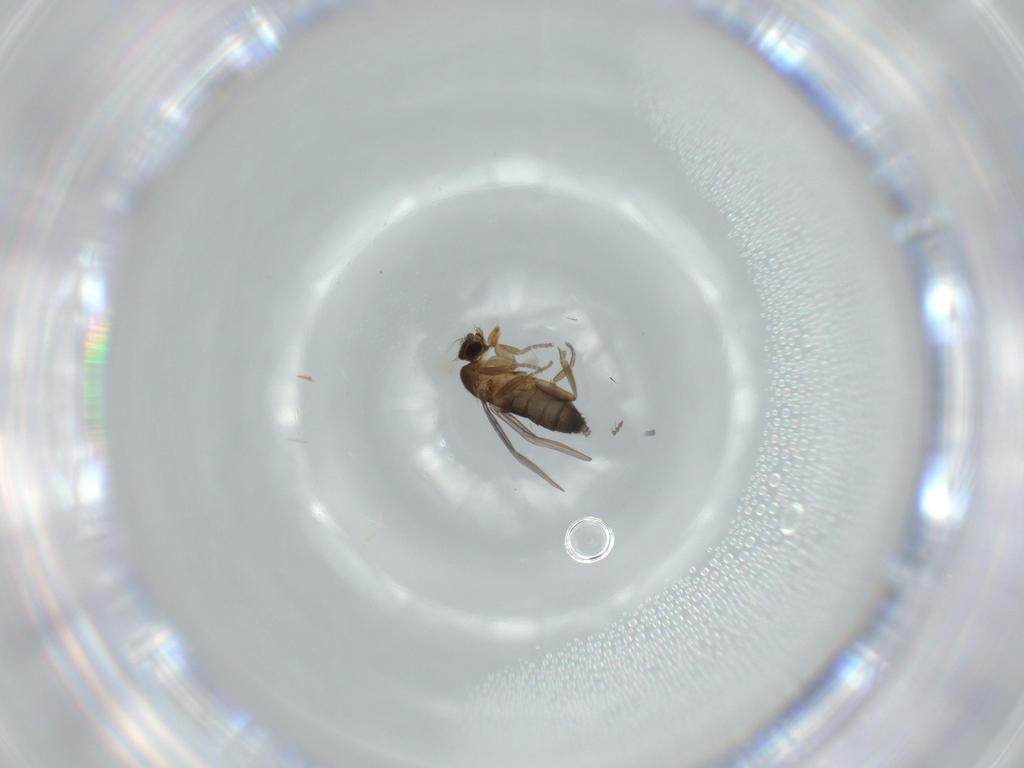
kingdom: Animalia
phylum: Arthropoda
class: Insecta
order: Diptera
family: Phoridae
